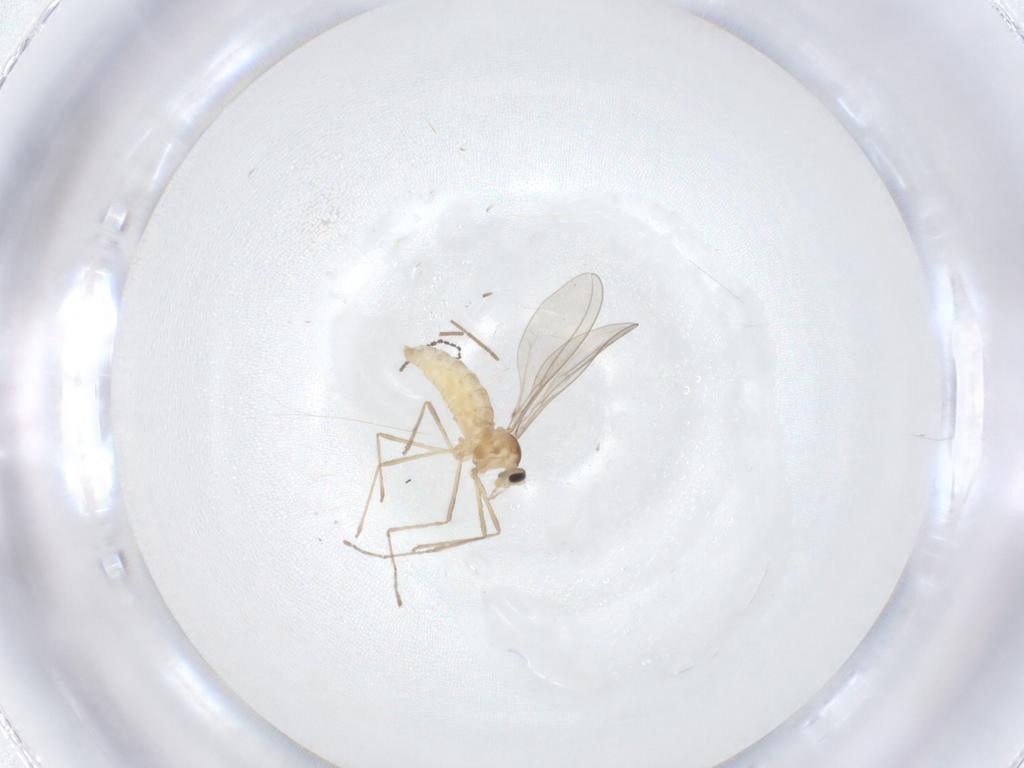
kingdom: Animalia
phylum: Arthropoda
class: Insecta
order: Diptera
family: Cecidomyiidae
